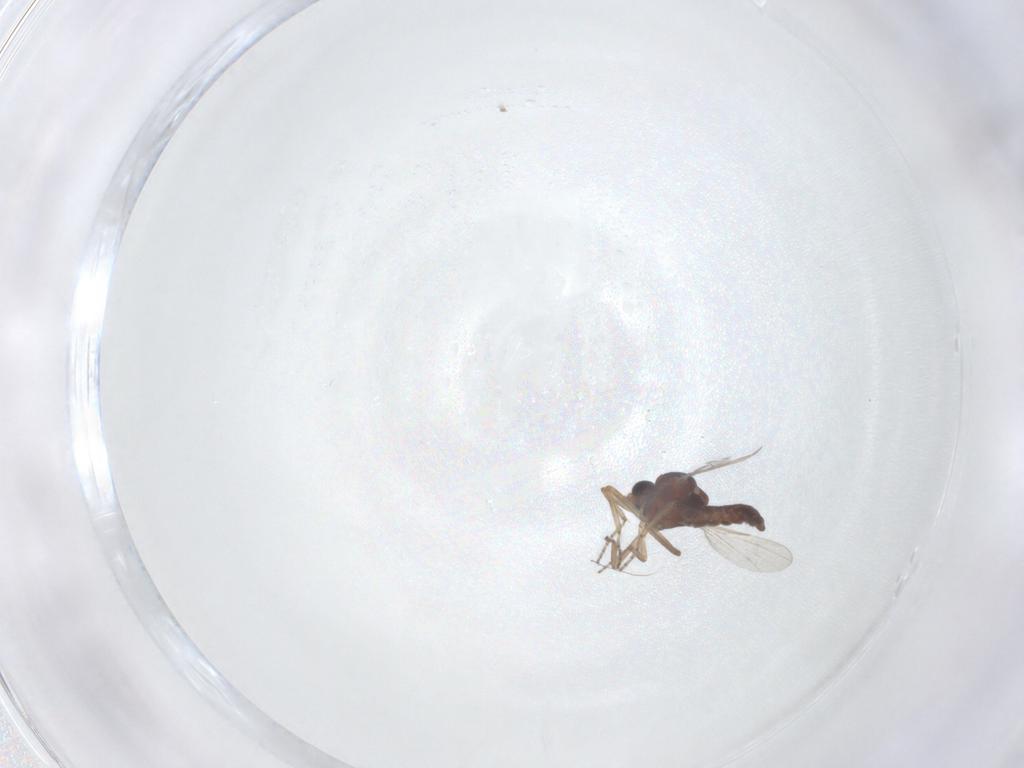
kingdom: Animalia
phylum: Arthropoda
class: Insecta
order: Diptera
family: Ceratopogonidae
